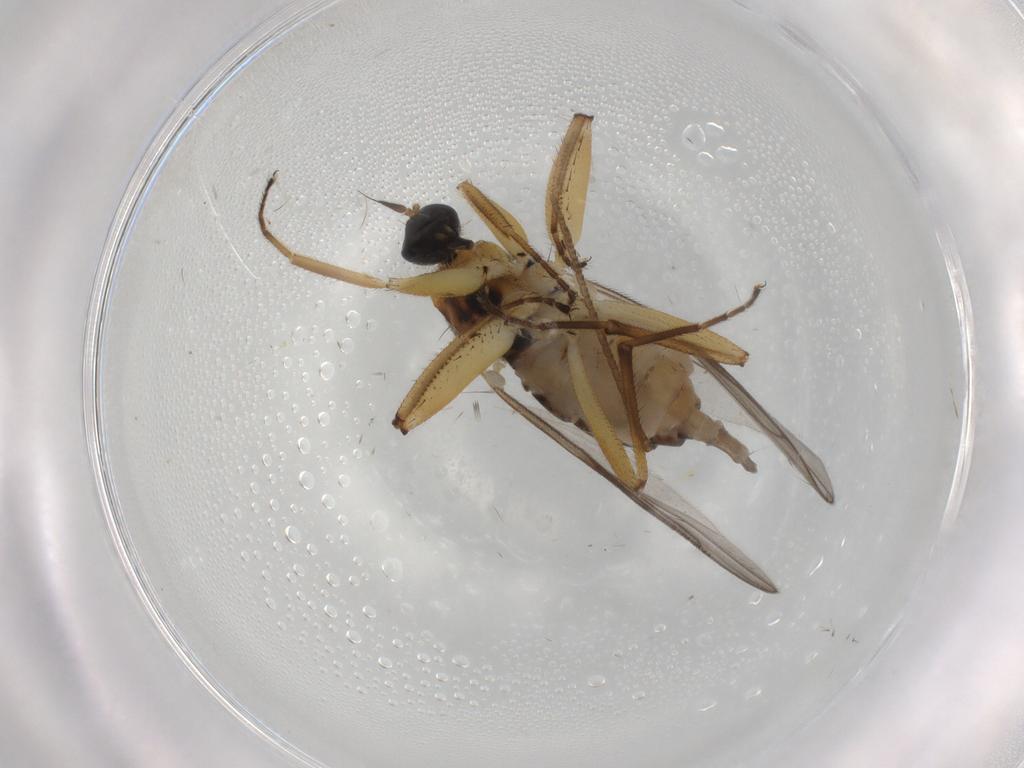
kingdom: Animalia
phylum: Arthropoda
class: Insecta
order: Diptera
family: Hybotidae
